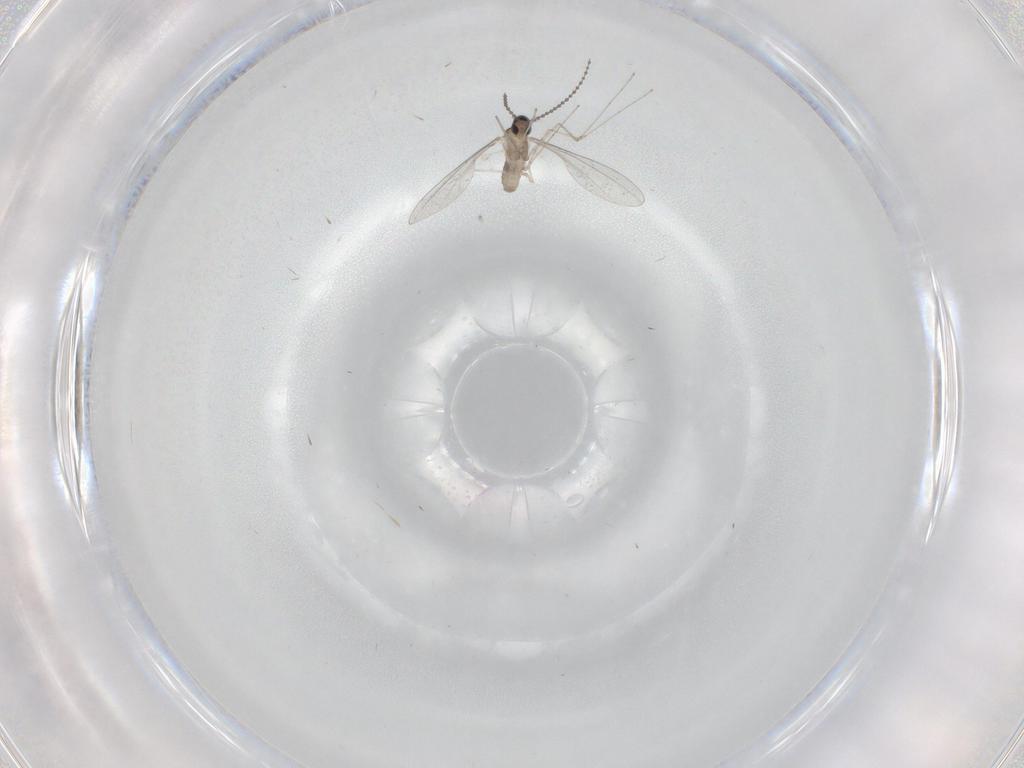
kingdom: Animalia
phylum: Arthropoda
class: Insecta
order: Diptera
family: Cecidomyiidae
